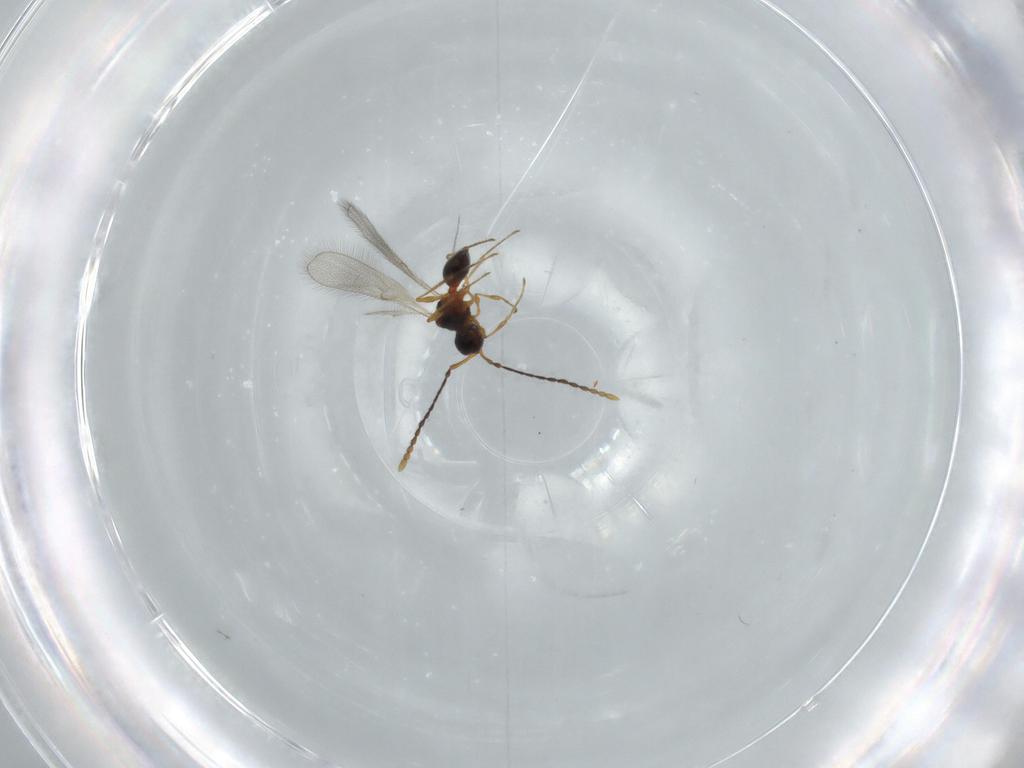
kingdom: Animalia
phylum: Arthropoda
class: Insecta
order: Hymenoptera
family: Diapriidae
